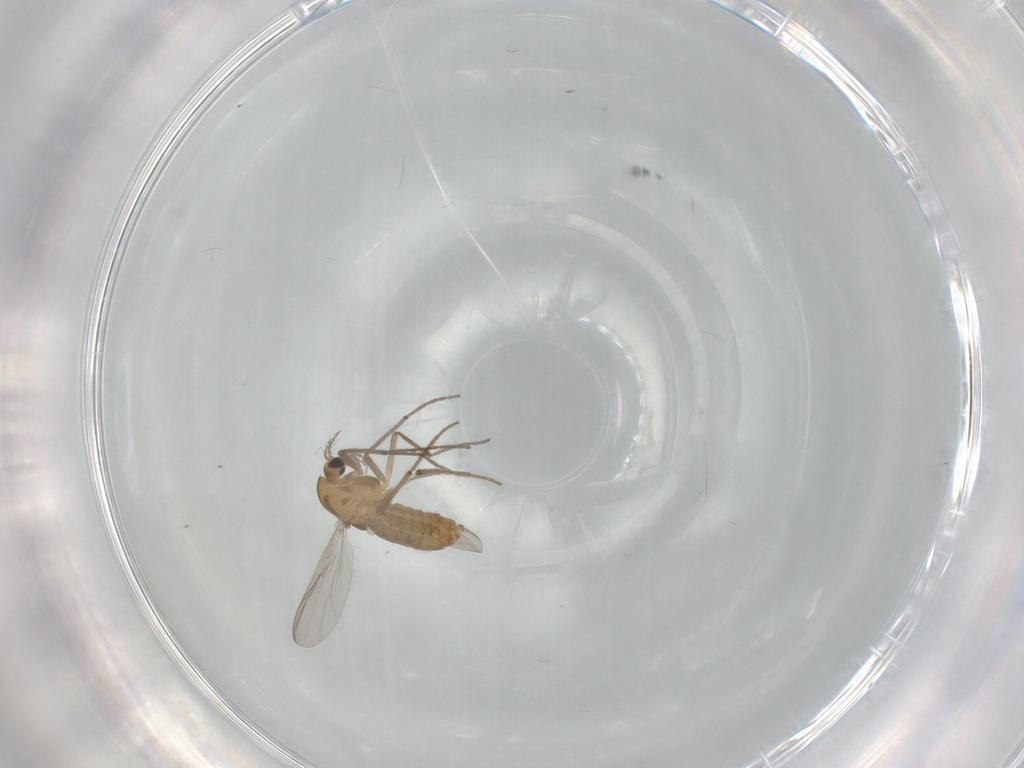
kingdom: Animalia
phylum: Arthropoda
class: Insecta
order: Diptera
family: Chironomidae
